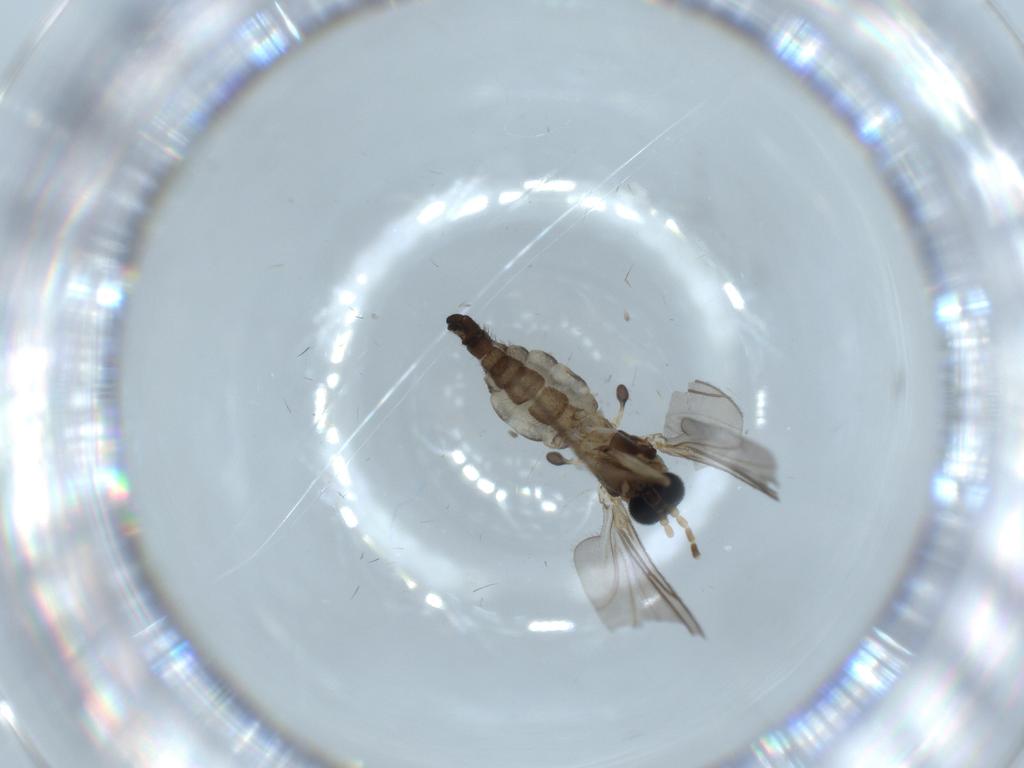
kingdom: Animalia
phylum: Arthropoda
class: Insecta
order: Diptera
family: Sciaridae
